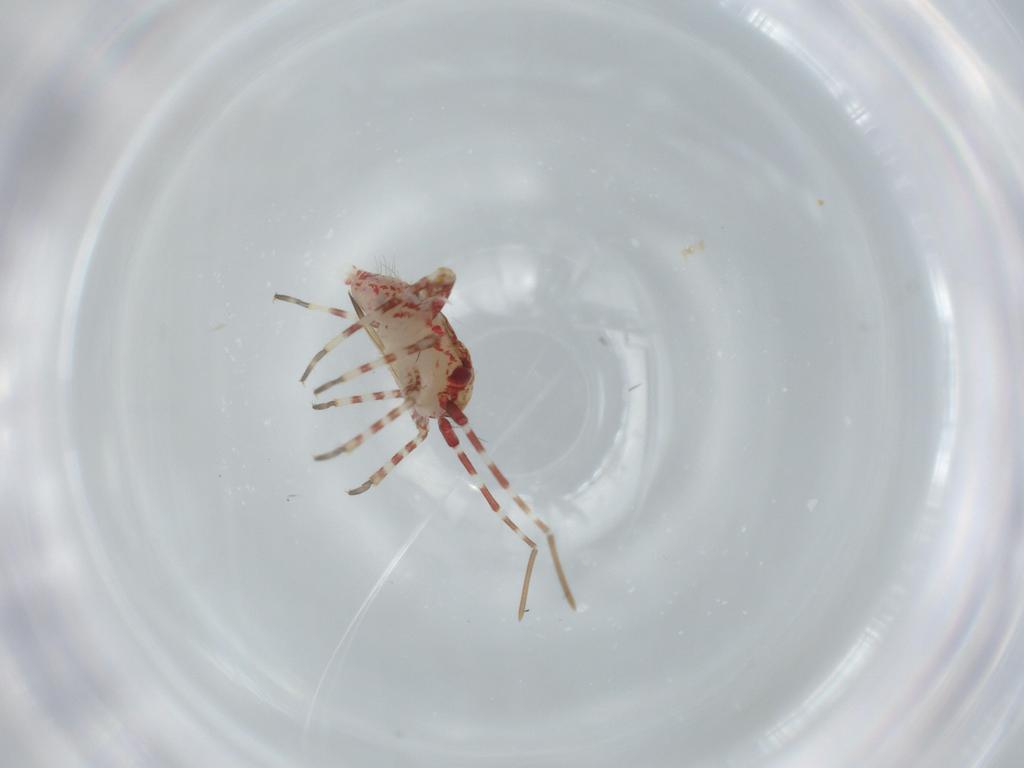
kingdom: Animalia
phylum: Arthropoda
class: Insecta
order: Hemiptera
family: Miridae
